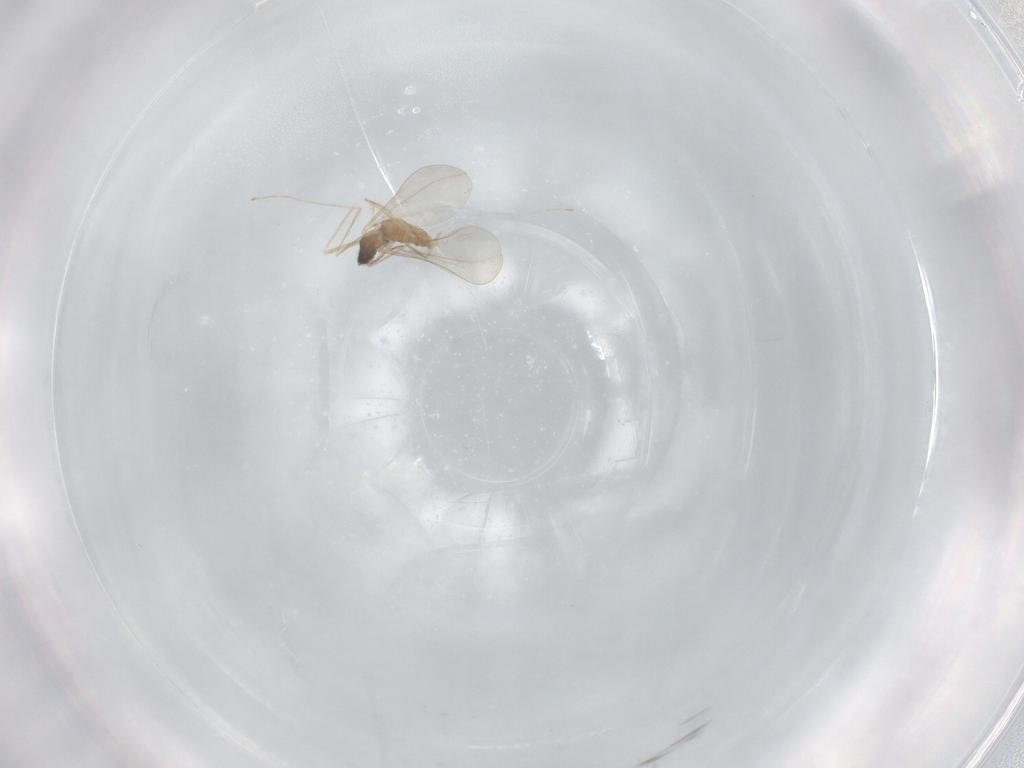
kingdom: Animalia
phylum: Arthropoda
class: Insecta
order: Diptera
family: Cecidomyiidae
